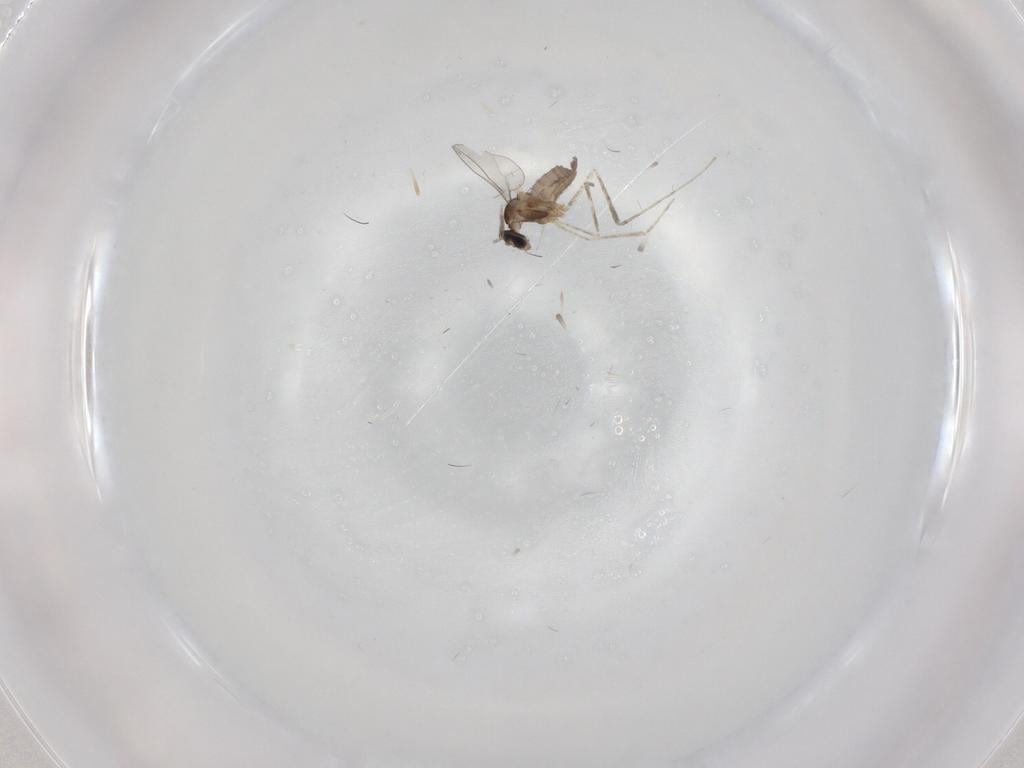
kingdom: Animalia
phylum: Arthropoda
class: Insecta
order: Diptera
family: Cecidomyiidae
